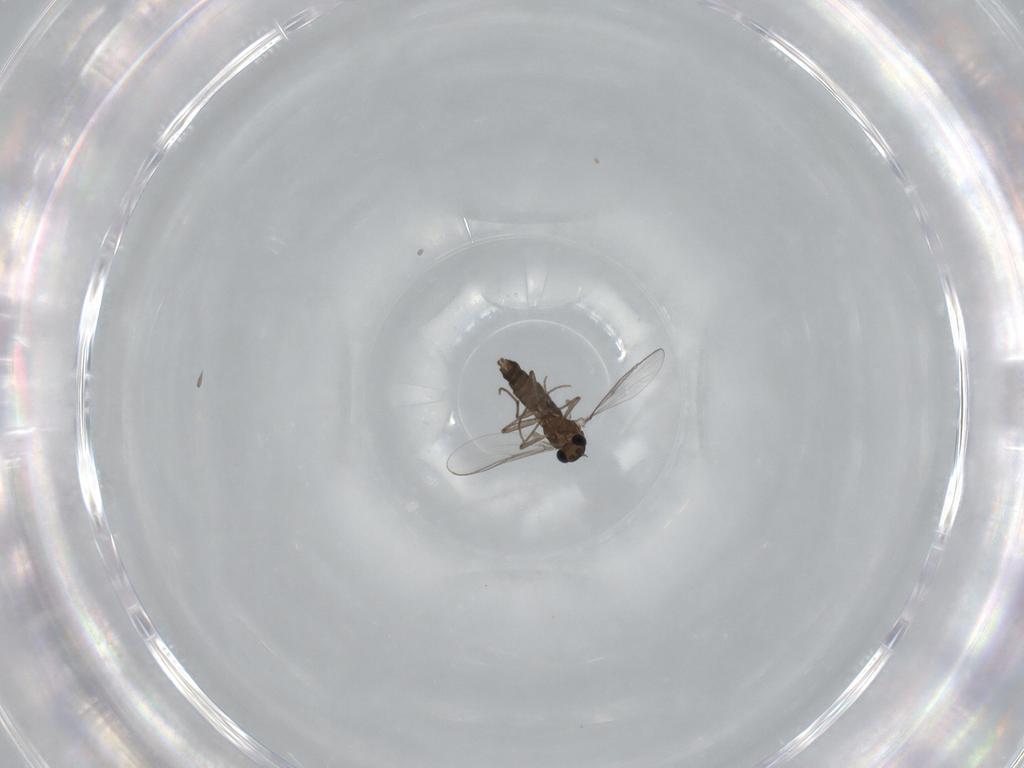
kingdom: Animalia
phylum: Arthropoda
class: Insecta
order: Diptera
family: Chironomidae
